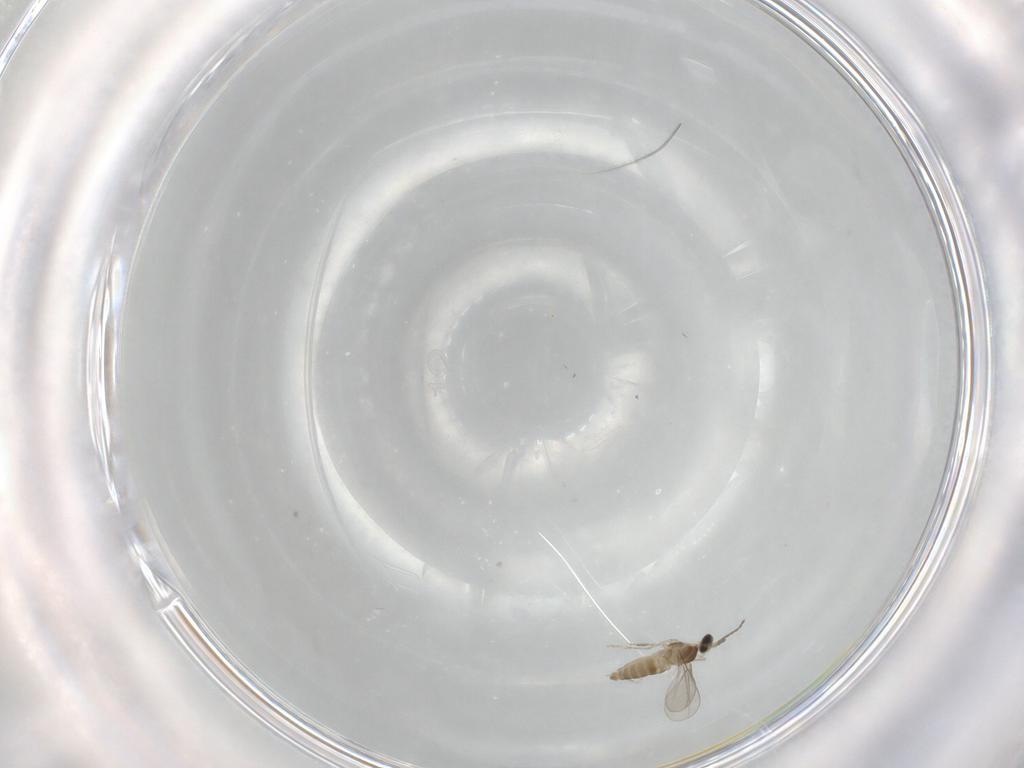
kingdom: Animalia
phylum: Arthropoda
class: Insecta
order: Diptera
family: Cecidomyiidae
